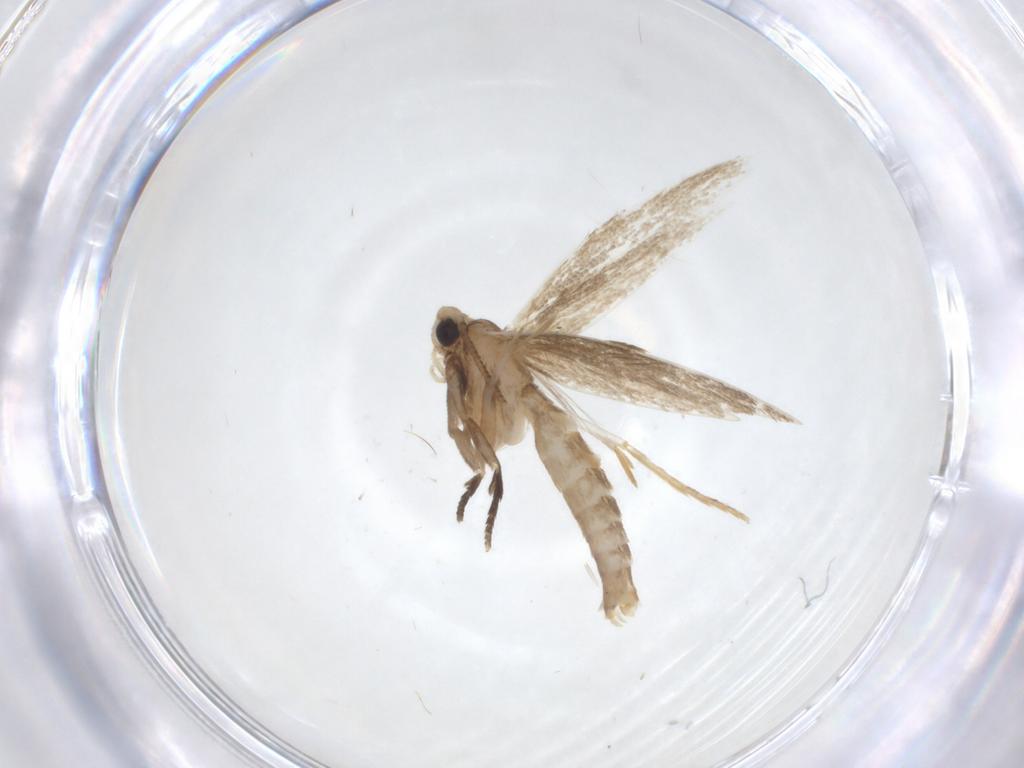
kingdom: Animalia
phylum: Arthropoda
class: Insecta
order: Lepidoptera
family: Tineidae
